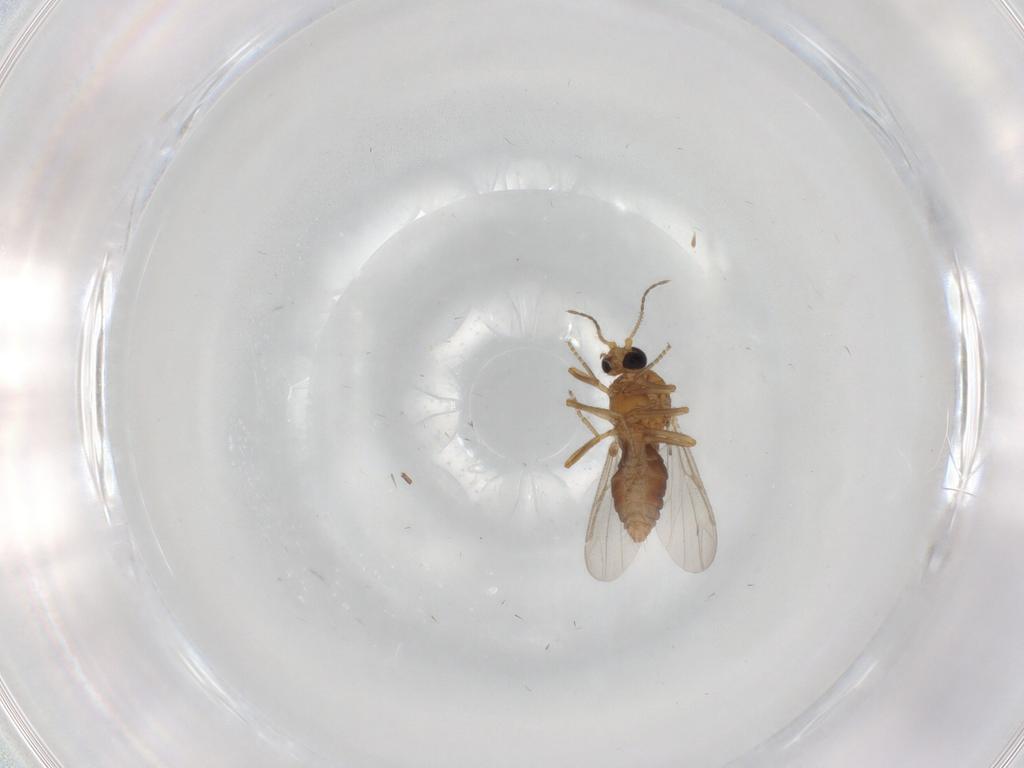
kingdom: Animalia
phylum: Arthropoda
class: Insecta
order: Diptera
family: Ceratopogonidae
